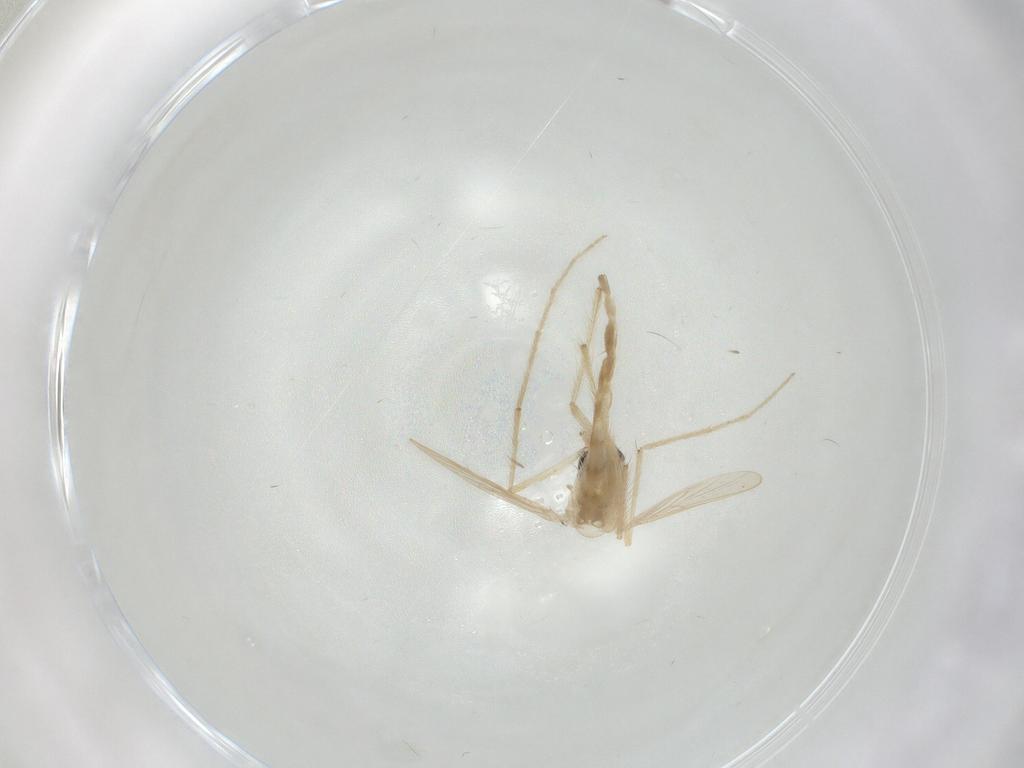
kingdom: Animalia
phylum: Arthropoda
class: Insecta
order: Diptera
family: Chironomidae
